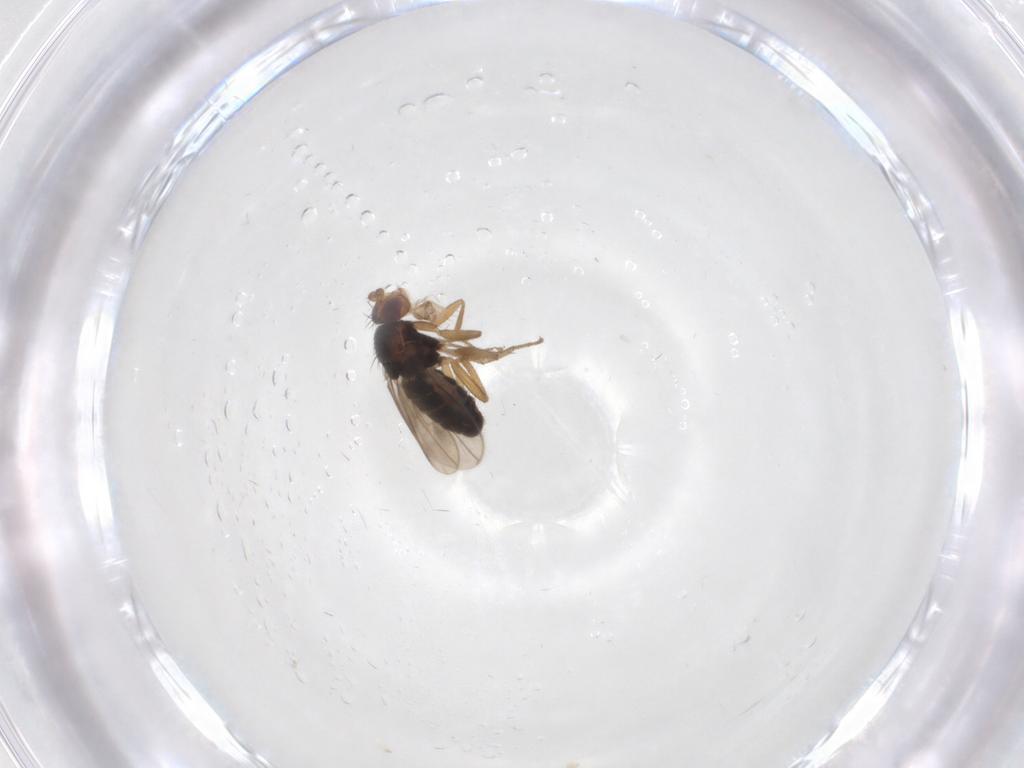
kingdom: Animalia
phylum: Arthropoda
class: Insecta
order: Diptera
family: Sphaeroceridae
